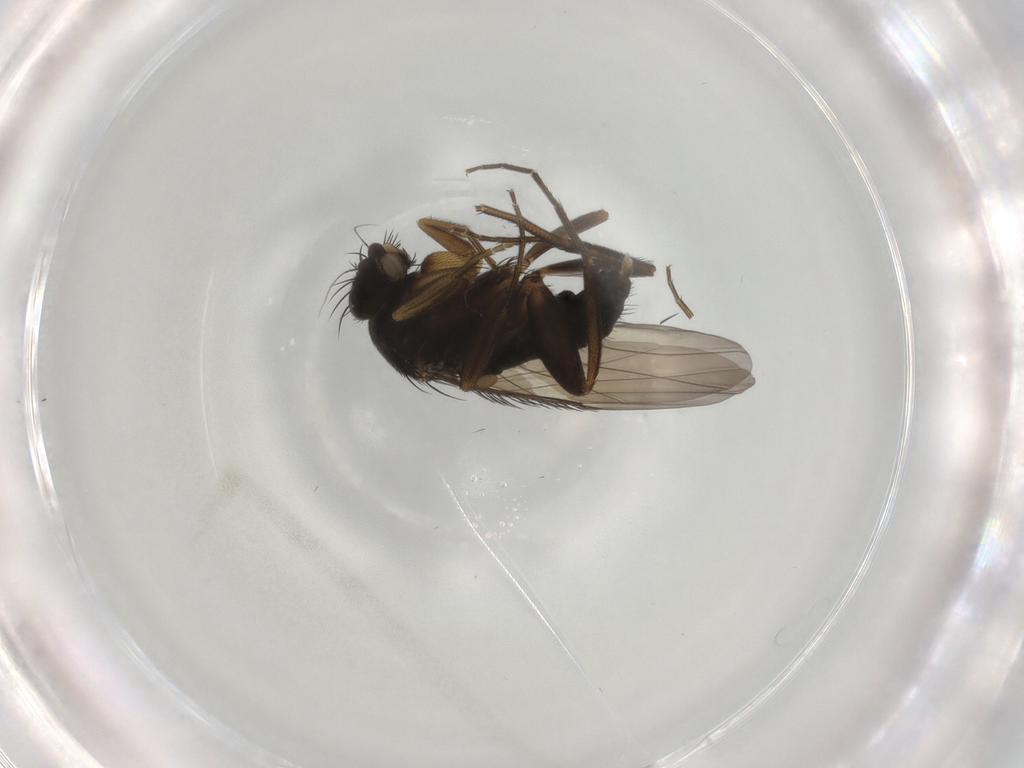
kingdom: Animalia
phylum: Arthropoda
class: Insecta
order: Diptera
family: Phoridae
